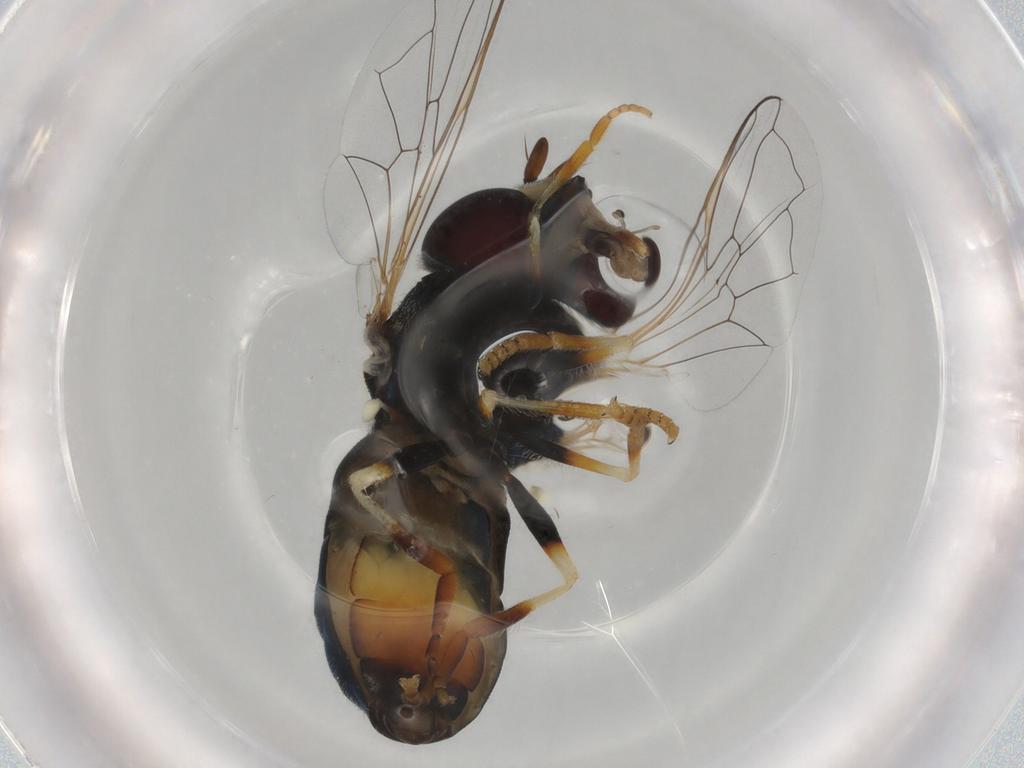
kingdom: Animalia
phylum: Arthropoda
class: Insecta
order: Diptera
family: Syrphidae
